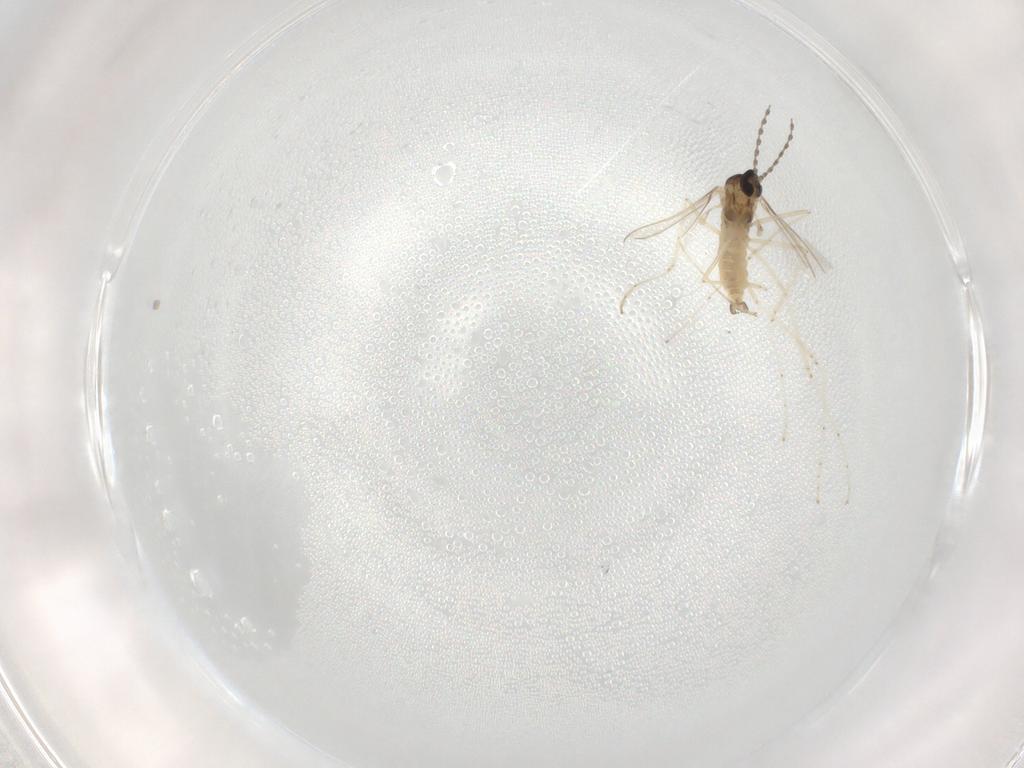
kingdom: Animalia
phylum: Arthropoda
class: Insecta
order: Diptera
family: Cecidomyiidae
